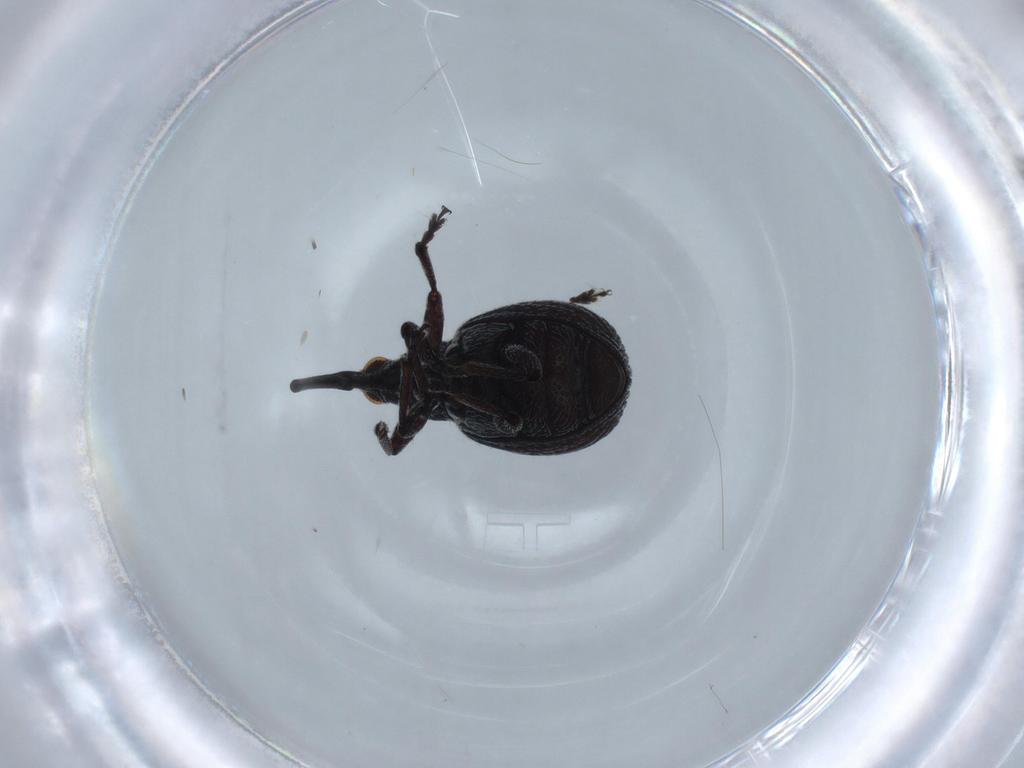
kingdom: Animalia
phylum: Arthropoda
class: Insecta
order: Coleoptera
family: Brentidae
